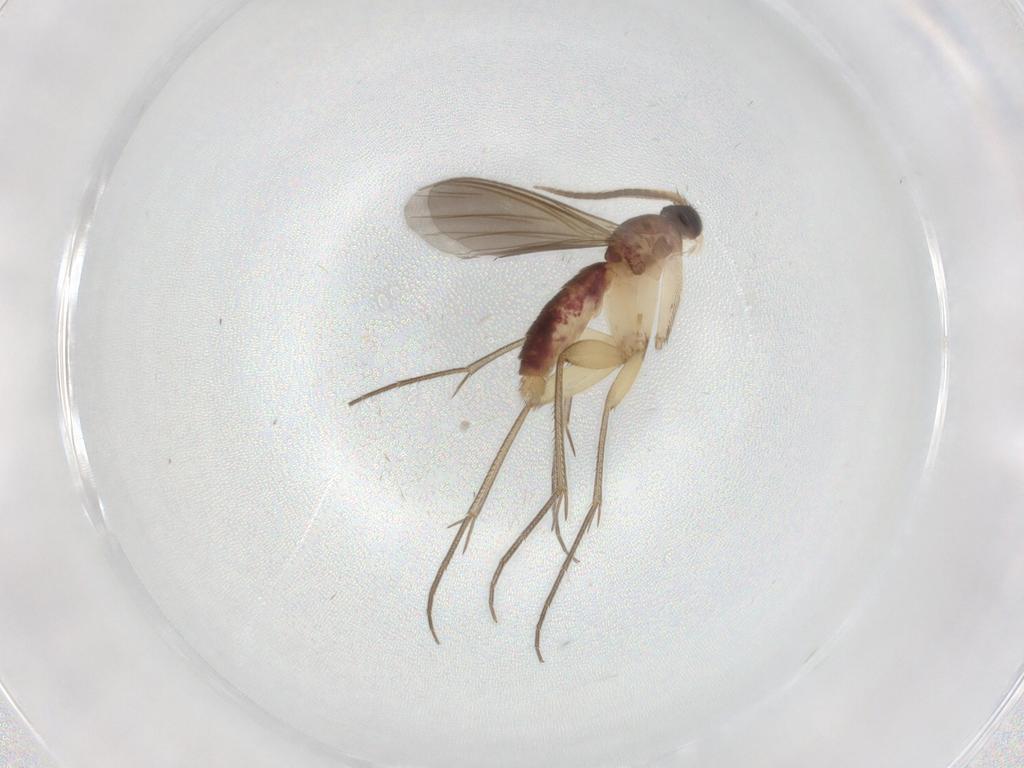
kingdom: Animalia
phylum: Arthropoda
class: Insecta
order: Diptera
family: Mycetophilidae
